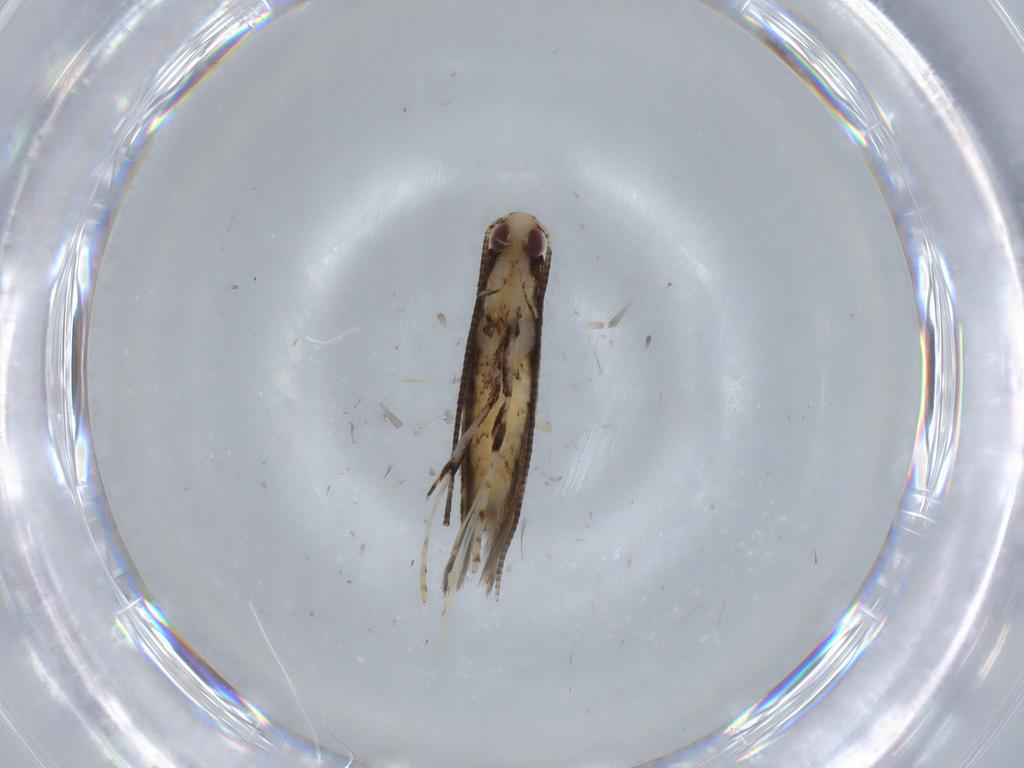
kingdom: Animalia
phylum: Arthropoda
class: Insecta
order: Lepidoptera
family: Gracillariidae
